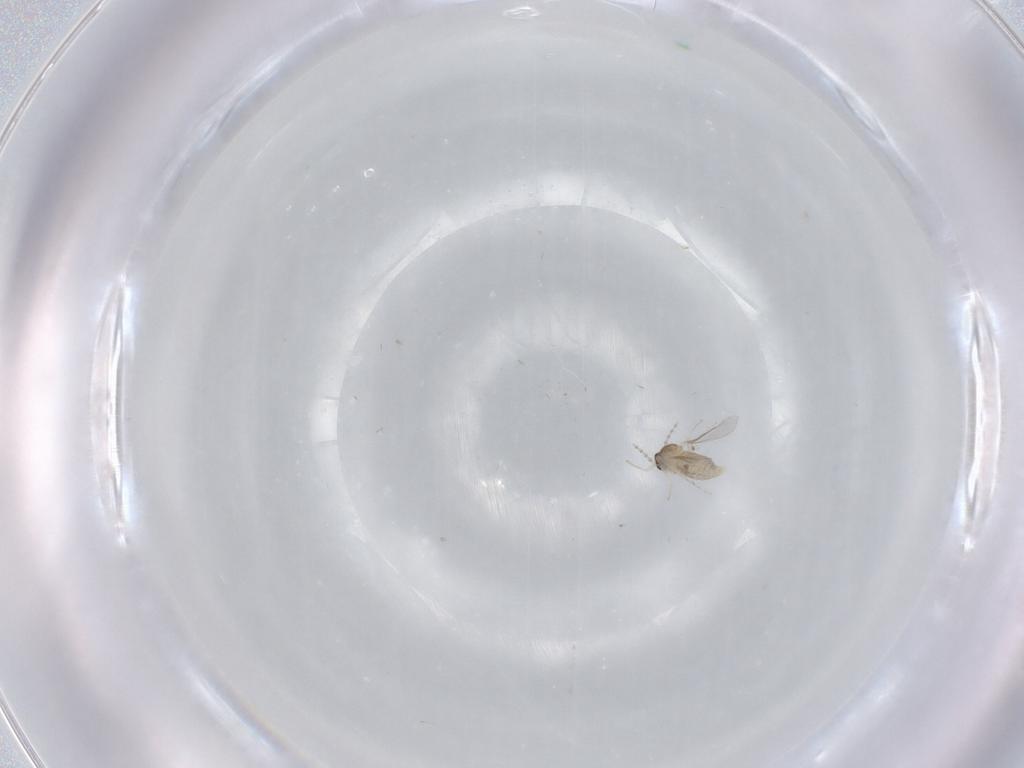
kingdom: Animalia
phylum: Arthropoda
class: Insecta
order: Diptera
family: Cecidomyiidae
